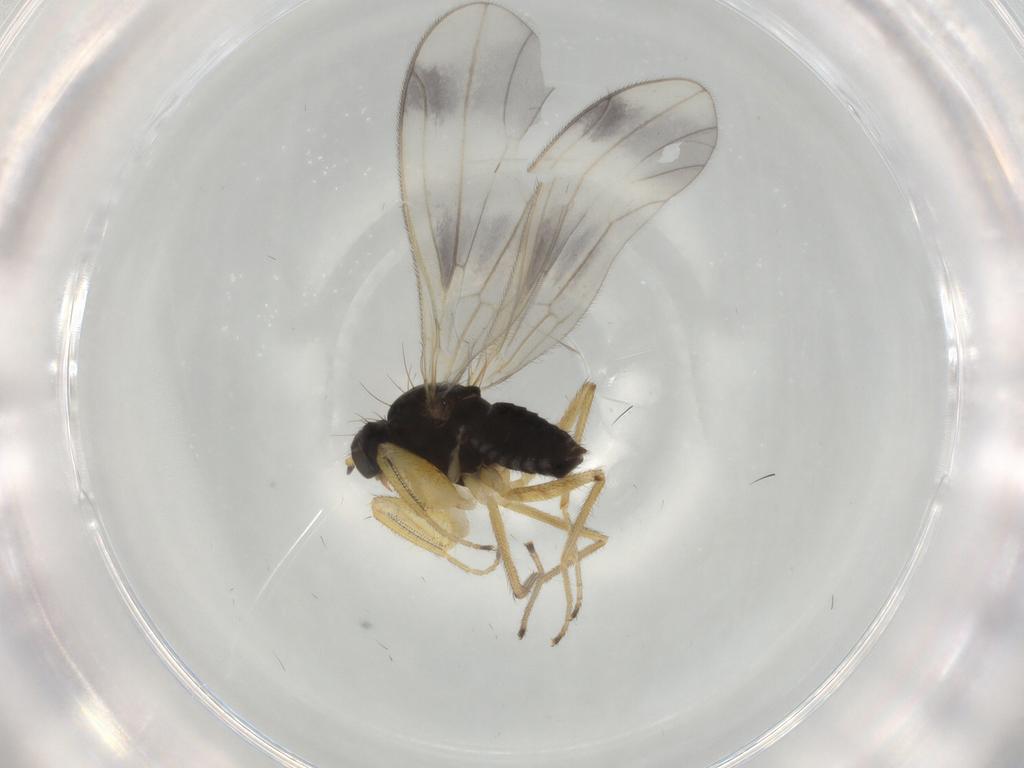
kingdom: Animalia
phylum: Arthropoda
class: Insecta
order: Diptera
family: Empididae
